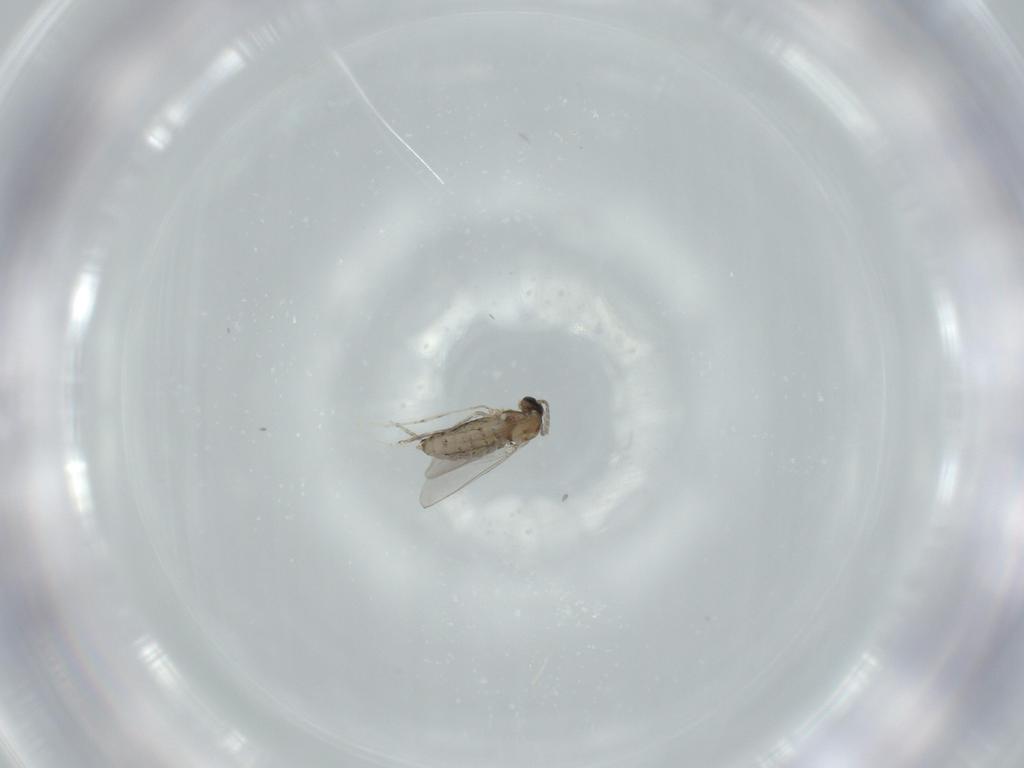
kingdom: Animalia
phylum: Arthropoda
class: Insecta
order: Diptera
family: Cecidomyiidae
